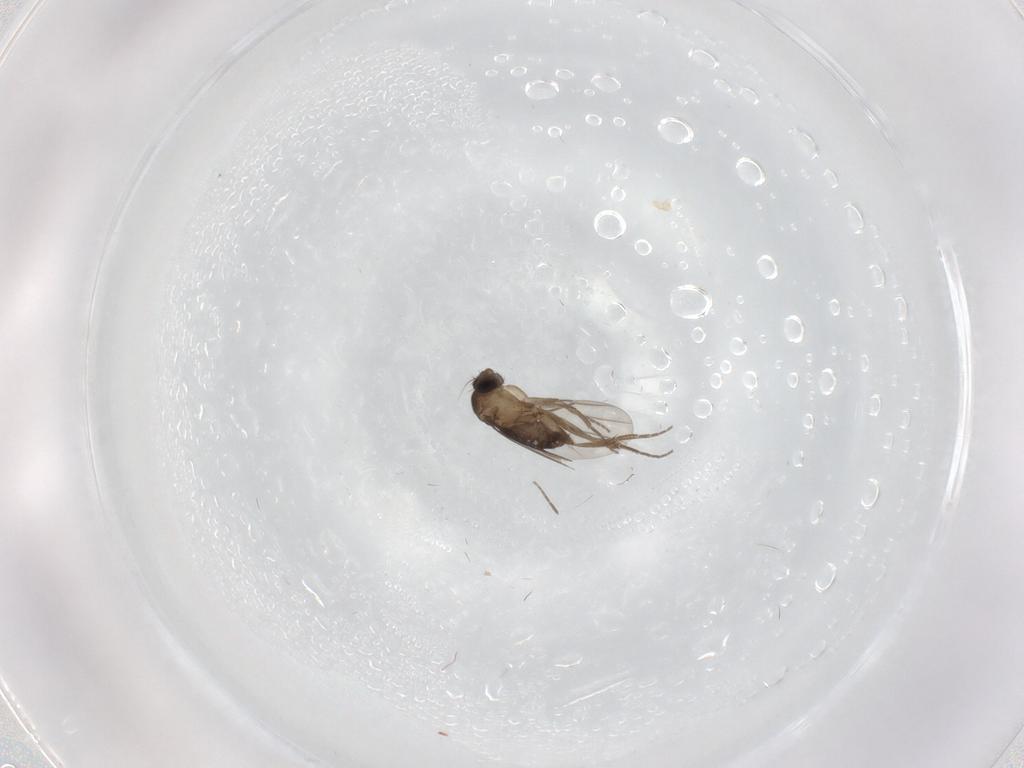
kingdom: Animalia
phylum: Arthropoda
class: Insecta
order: Diptera
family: Phoridae
